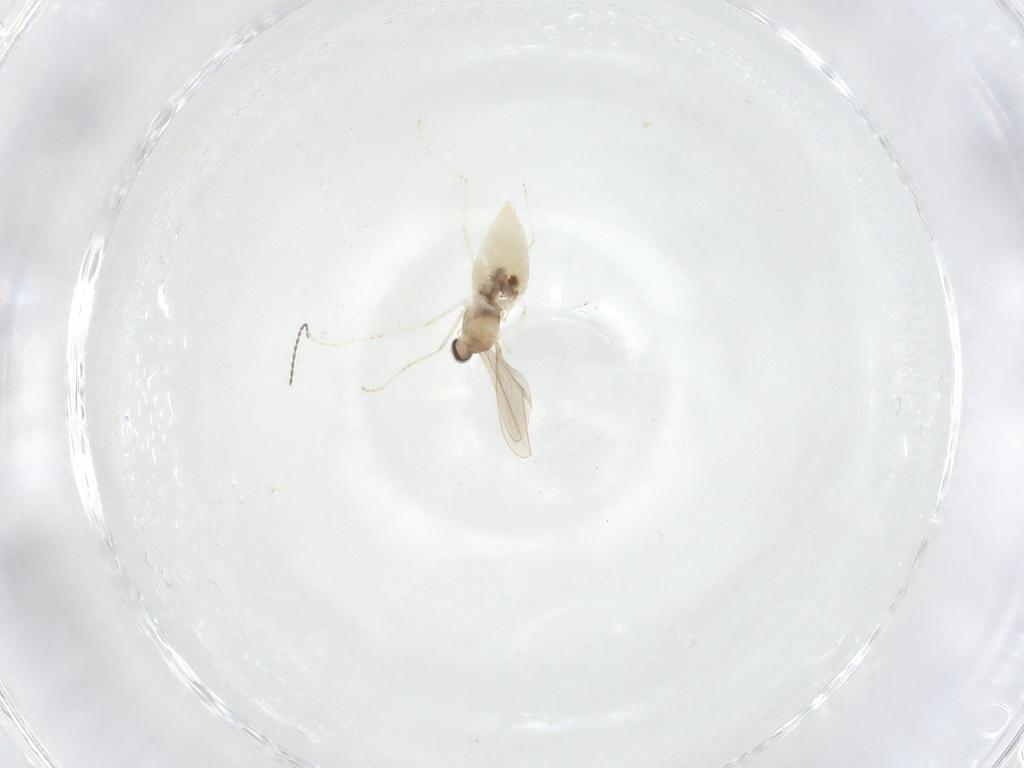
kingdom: Animalia
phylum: Arthropoda
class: Insecta
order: Diptera
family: Cecidomyiidae
